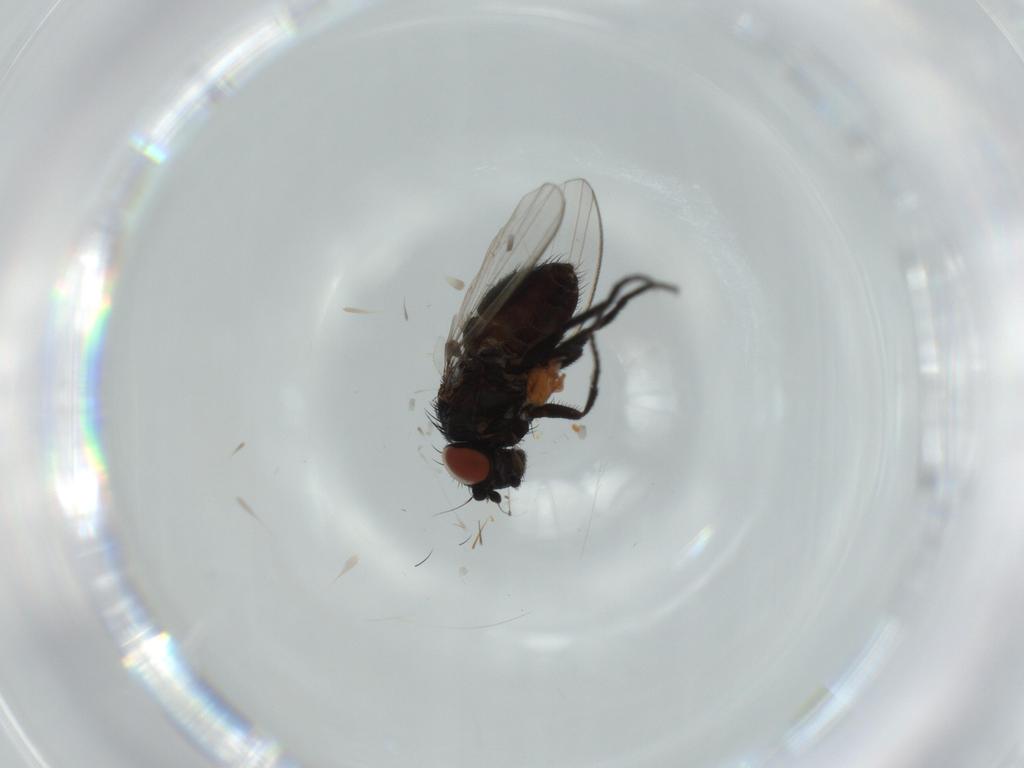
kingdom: Animalia
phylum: Arthropoda
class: Insecta
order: Diptera
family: Milichiidae
